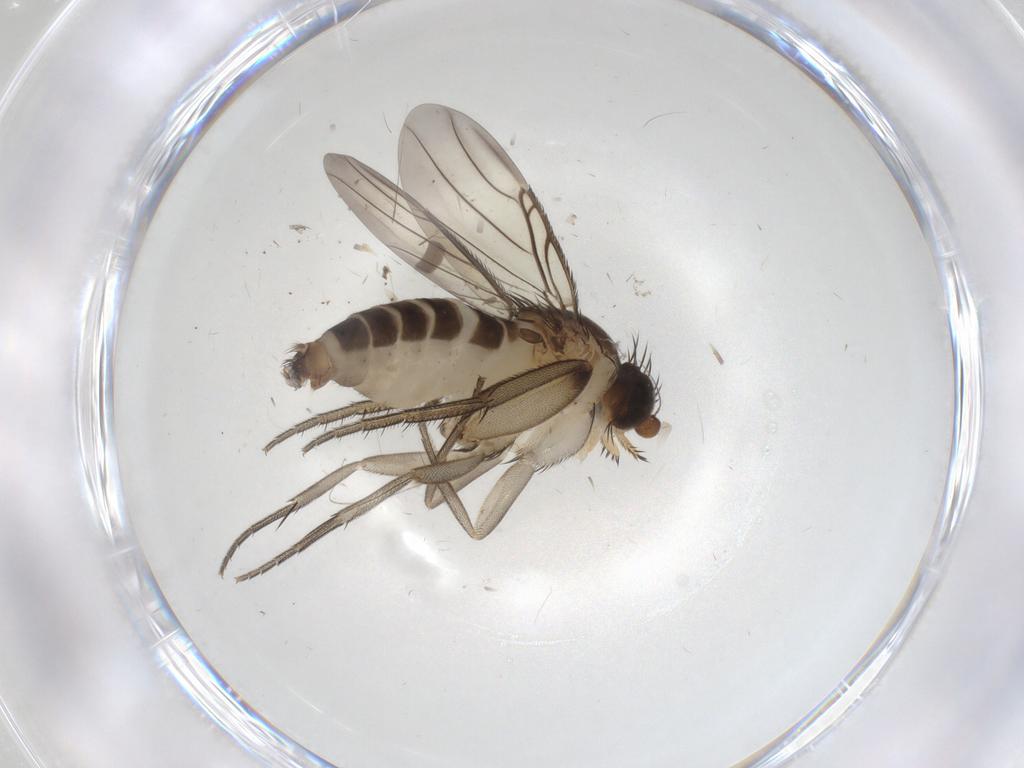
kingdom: Animalia
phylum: Arthropoda
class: Insecta
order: Diptera
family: Phoridae
